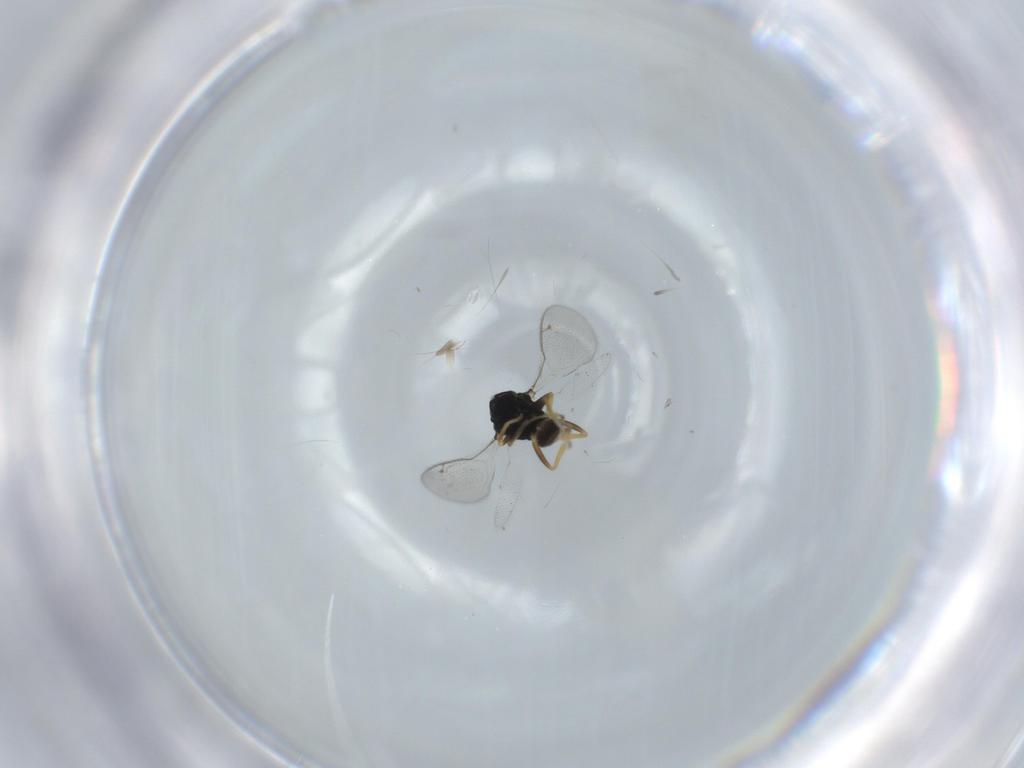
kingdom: Animalia
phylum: Arthropoda
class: Insecta
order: Hymenoptera
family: Pteromalidae
